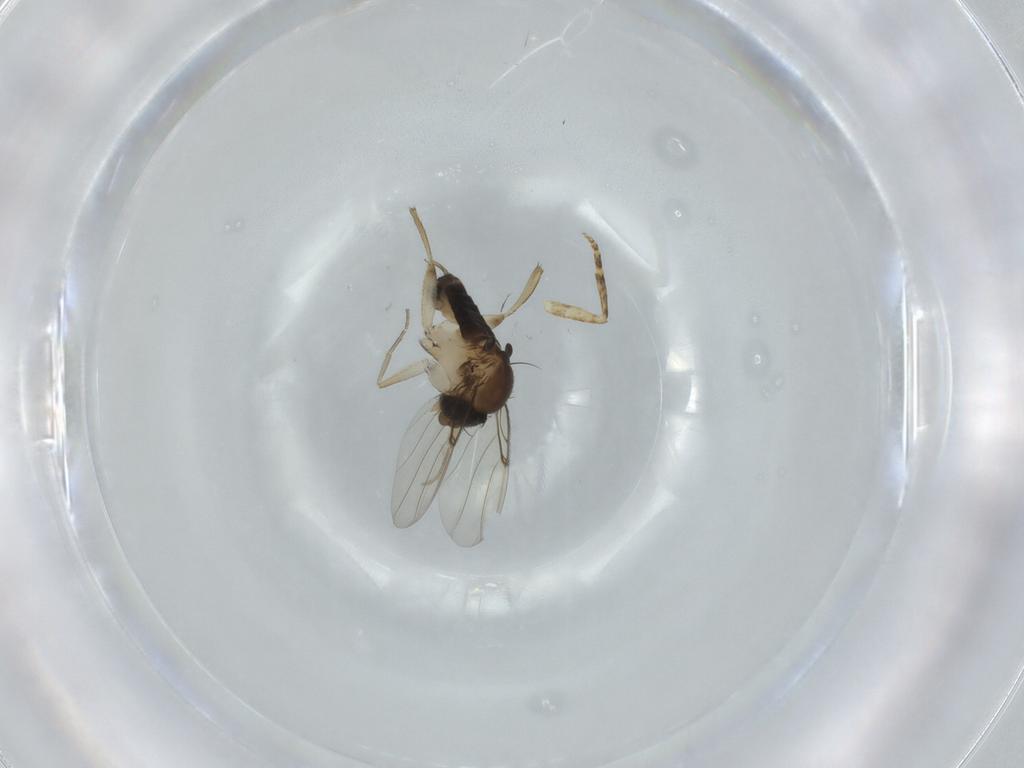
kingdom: Animalia
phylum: Arthropoda
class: Insecta
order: Diptera
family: Phoridae
